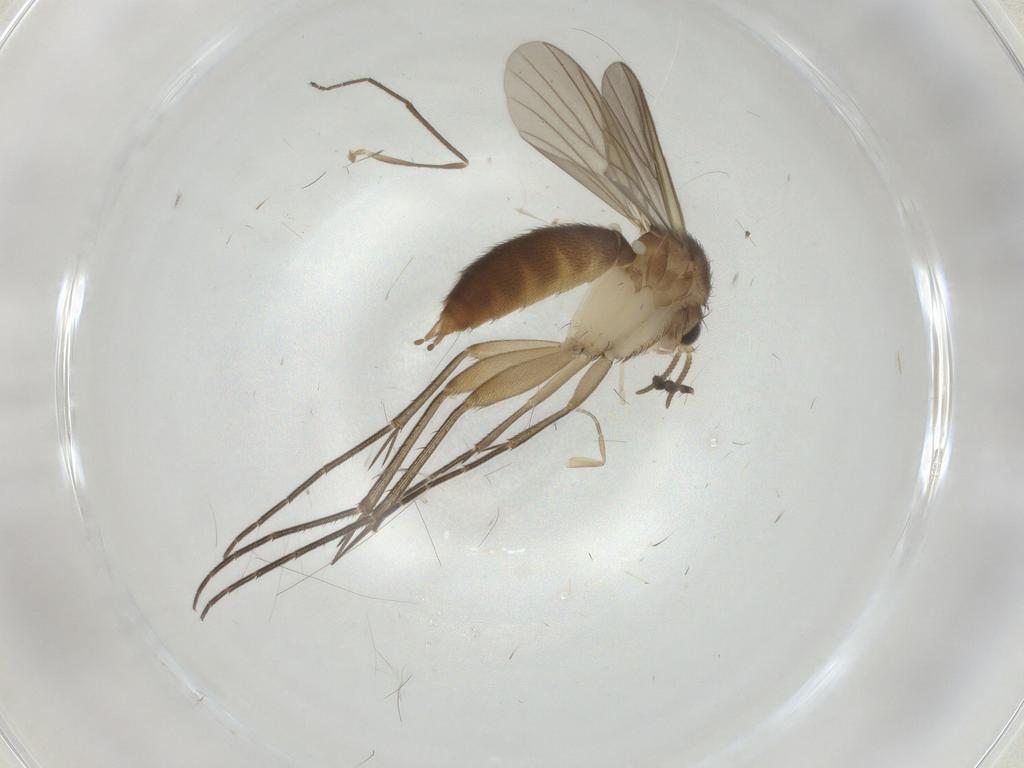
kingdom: Animalia
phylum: Arthropoda
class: Insecta
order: Diptera
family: Mycetophilidae
